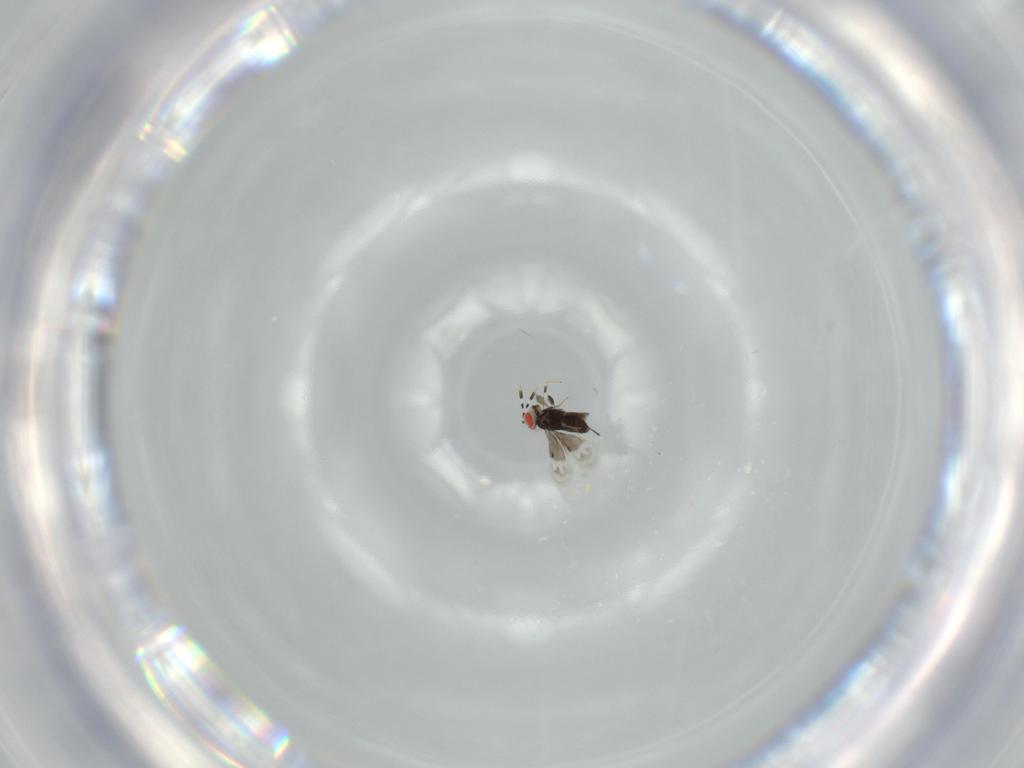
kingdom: Animalia
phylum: Arthropoda
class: Insecta
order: Hymenoptera
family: Azotidae
